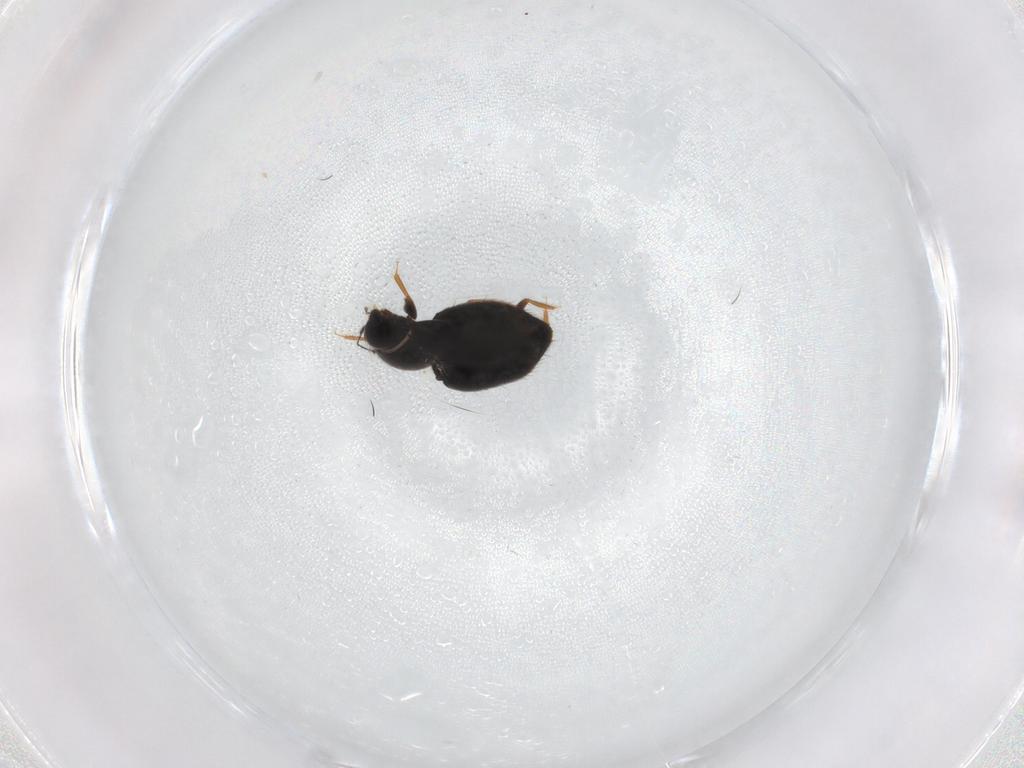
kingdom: Animalia
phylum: Arthropoda
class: Insecta
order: Coleoptera
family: Ptiliidae
